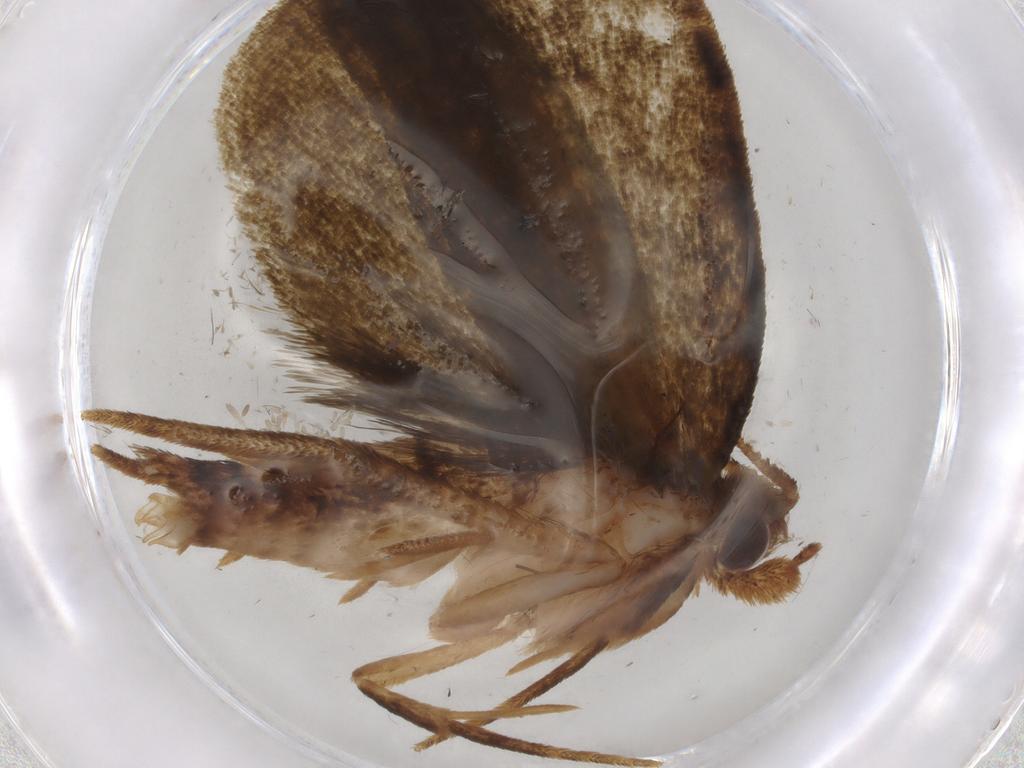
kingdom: Animalia
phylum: Arthropoda
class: Insecta
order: Lepidoptera
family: Geometridae
